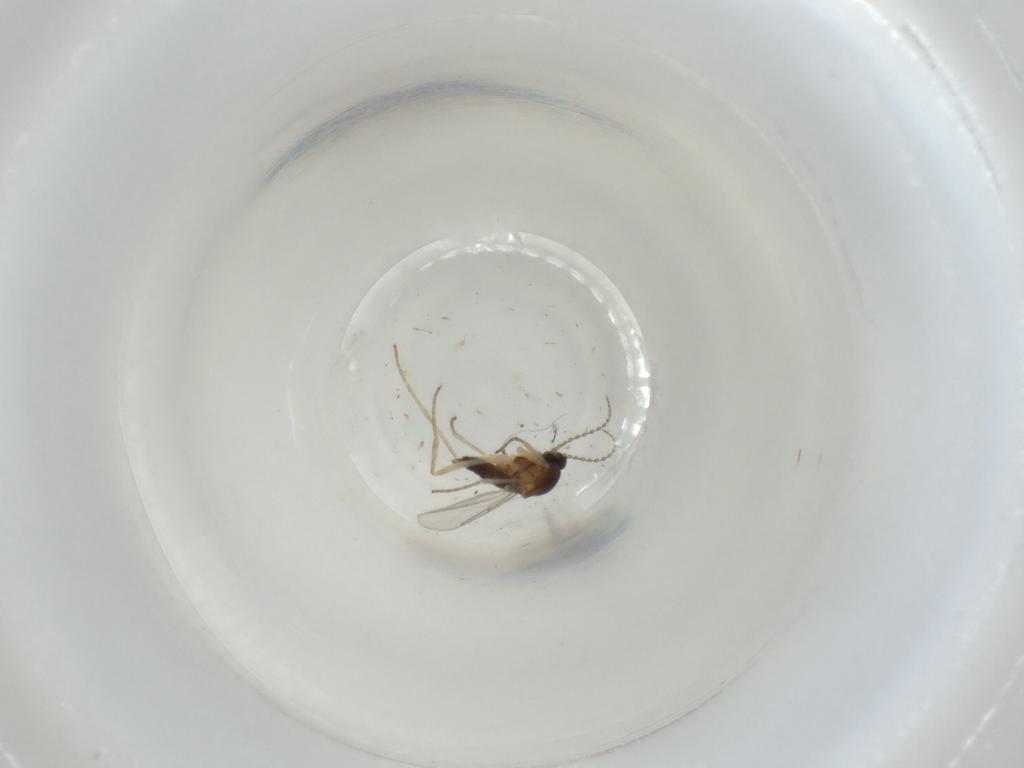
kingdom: Animalia
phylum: Arthropoda
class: Insecta
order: Diptera
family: Cecidomyiidae
